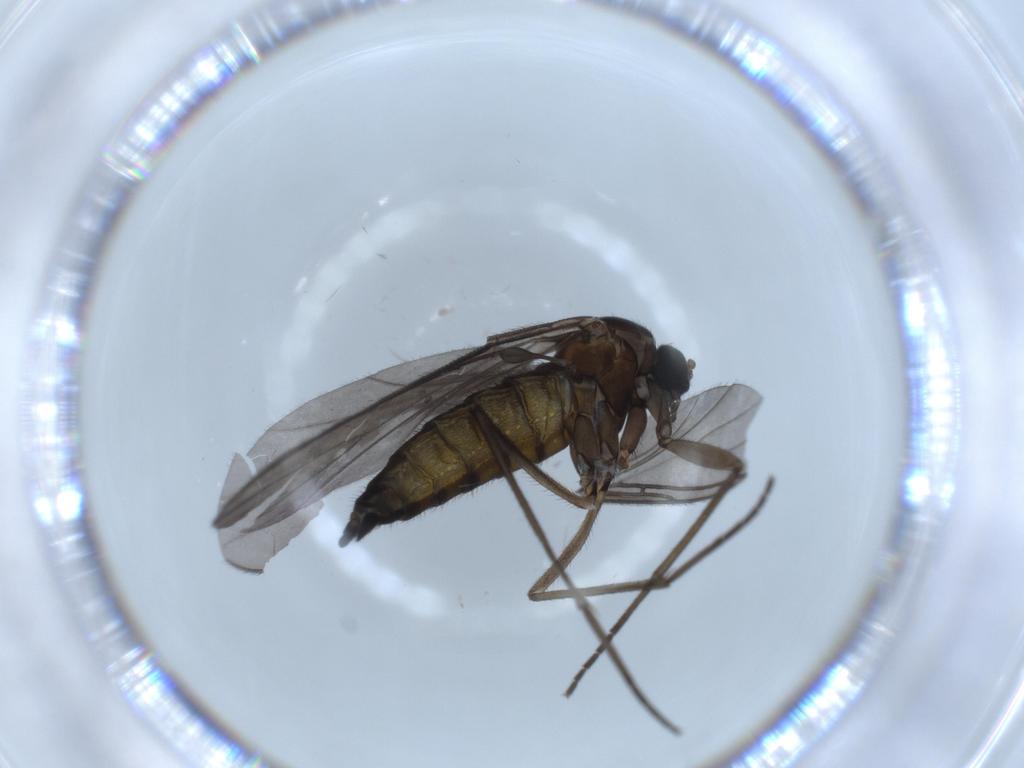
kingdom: Animalia
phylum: Arthropoda
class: Insecta
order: Diptera
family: Sciaridae
